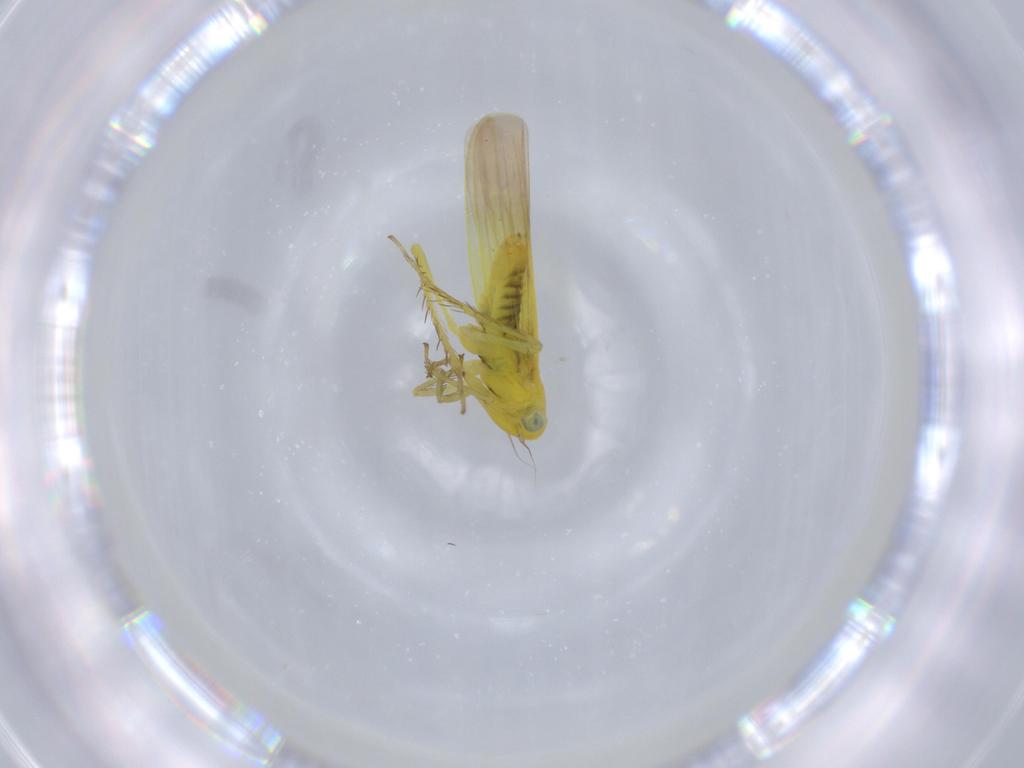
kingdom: Animalia
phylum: Arthropoda
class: Insecta
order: Hemiptera
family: Cicadellidae
